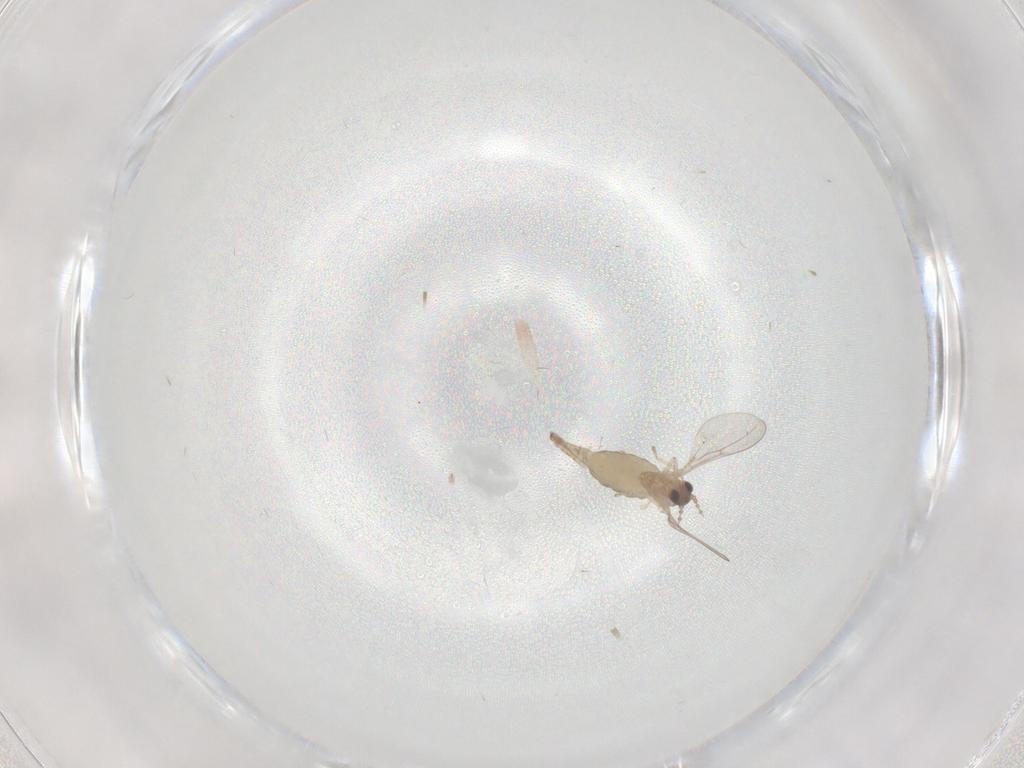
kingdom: Animalia
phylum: Arthropoda
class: Insecta
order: Diptera
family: Cecidomyiidae
